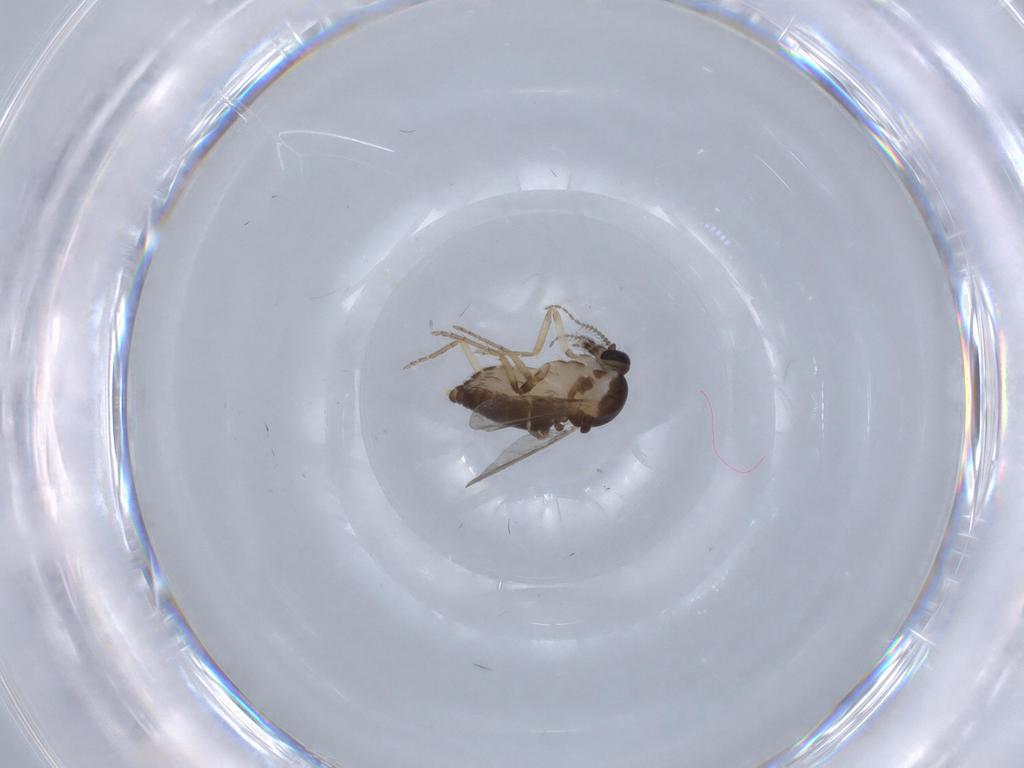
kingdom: Animalia
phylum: Arthropoda
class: Insecta
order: Diptera
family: Ceratopogonidae
